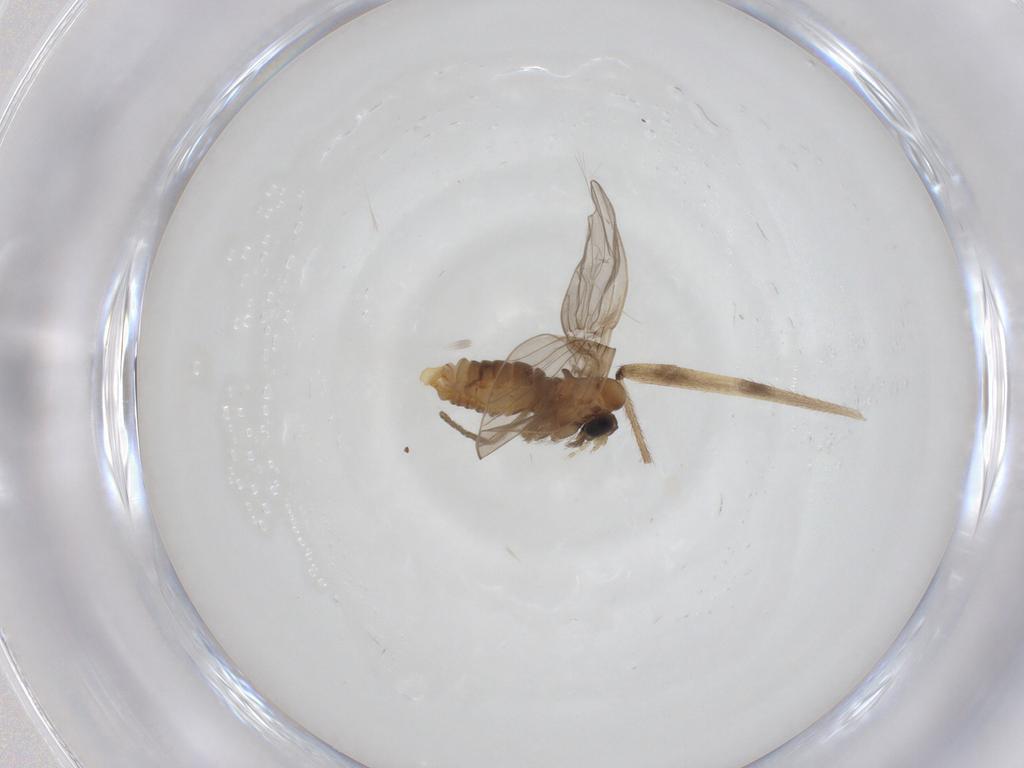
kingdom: Animalia
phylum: Arthropoda
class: Insecta
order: Diptera
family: Limoniidae
